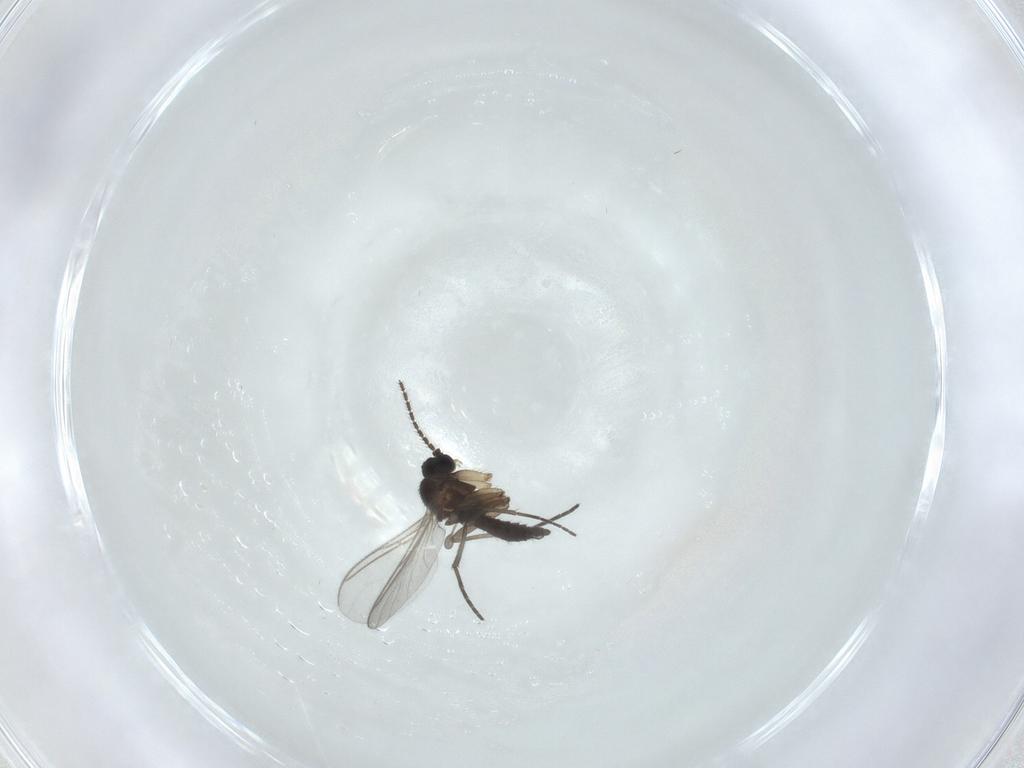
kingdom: Animalia
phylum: Arthropoda
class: Insecta
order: Diptera
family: Sciaridae
